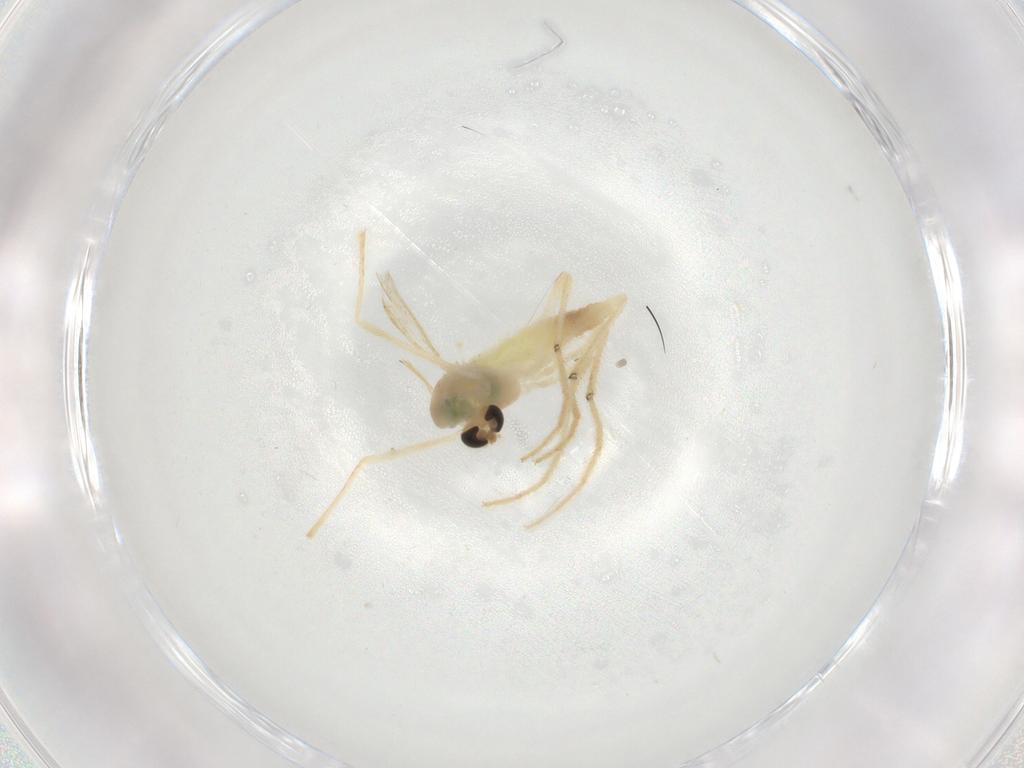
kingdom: Animalia
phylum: Arthropoda
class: Insecta
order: Diptera
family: Chironomidae
